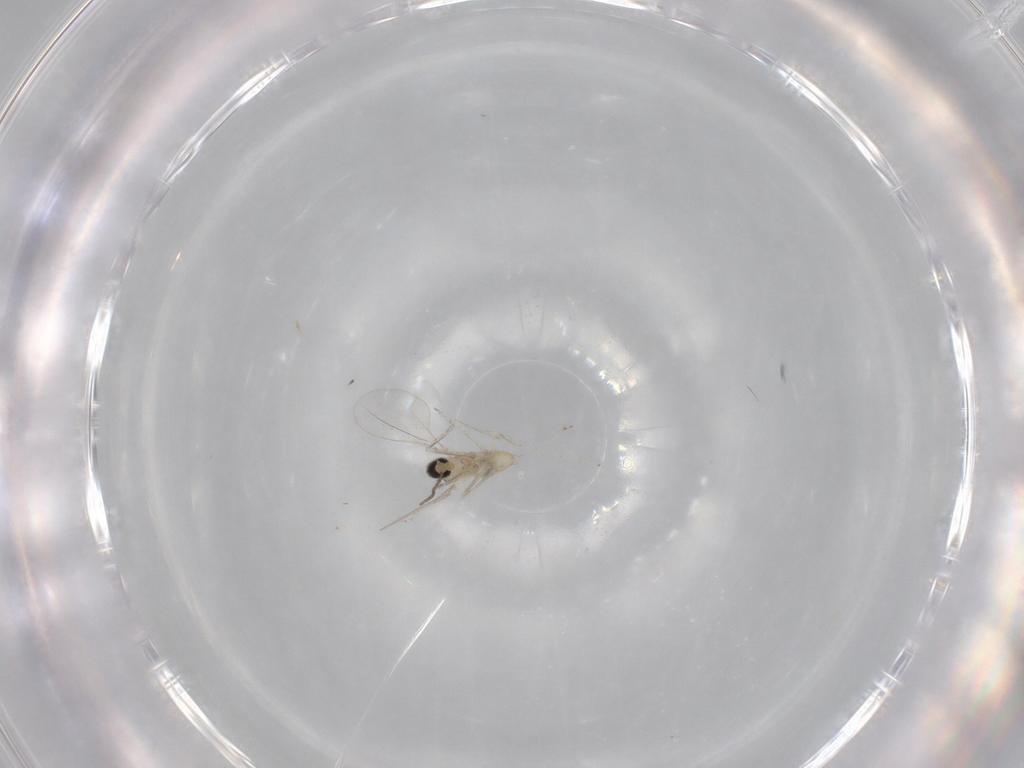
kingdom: Animalia
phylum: Arthropoda
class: Insecta
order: Diptera
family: Cecidomyiidae
